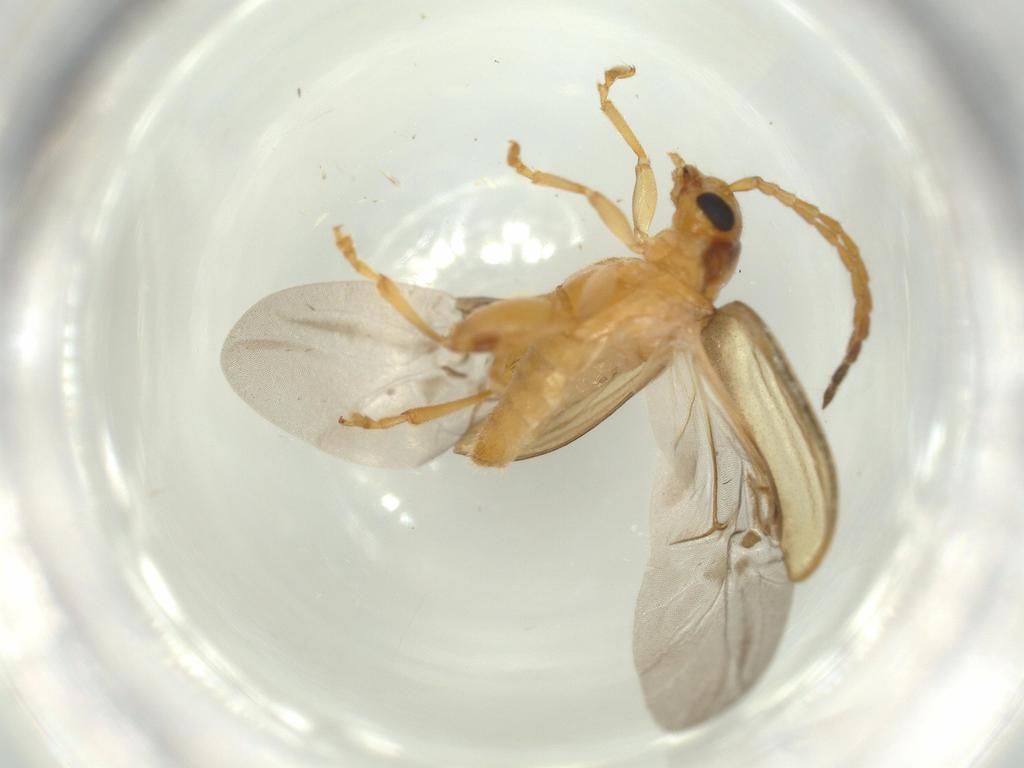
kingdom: Animalia
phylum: Arthropoda
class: Insecta
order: Coleoptera
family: Chrysomelidae
